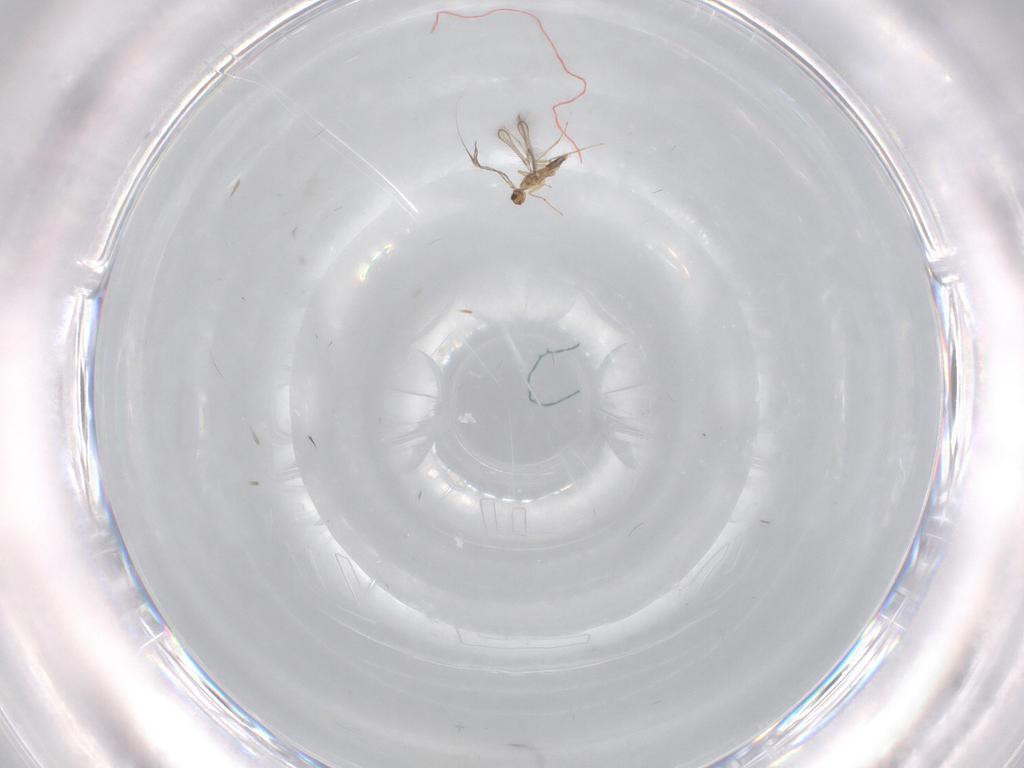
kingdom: Animalia
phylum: Arthropoda
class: Insecta
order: Hymenoptera
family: Mymaridae
